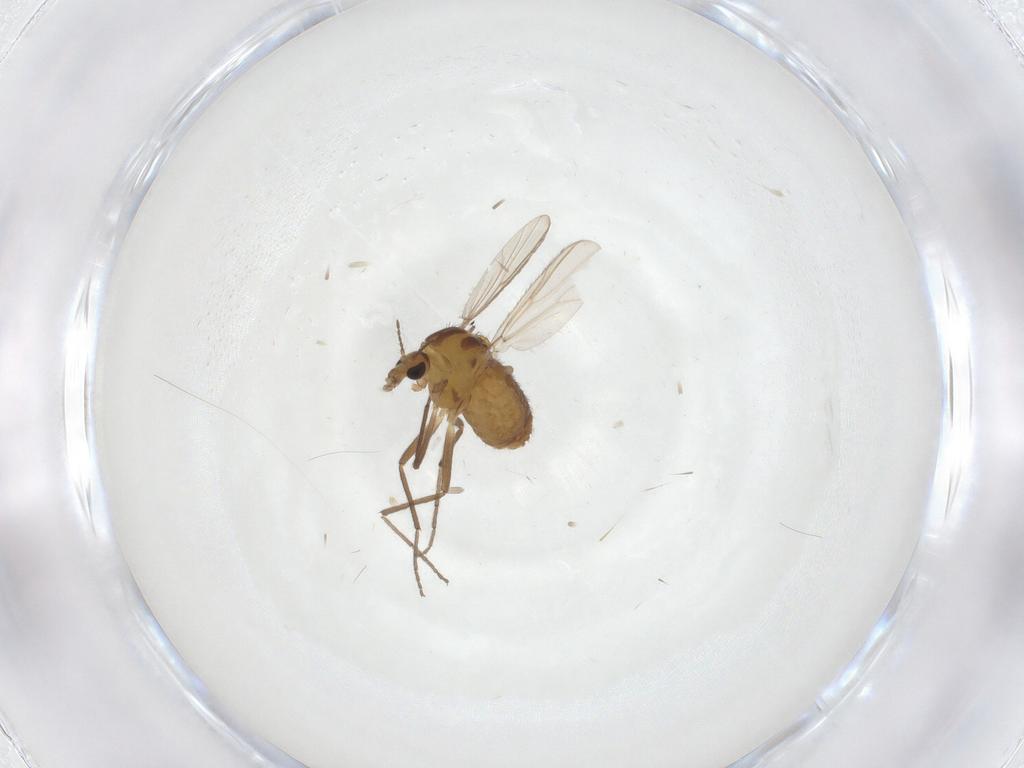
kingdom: Animalia
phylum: Arthropoda
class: Insecta
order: Diptera
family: Chironomidae
